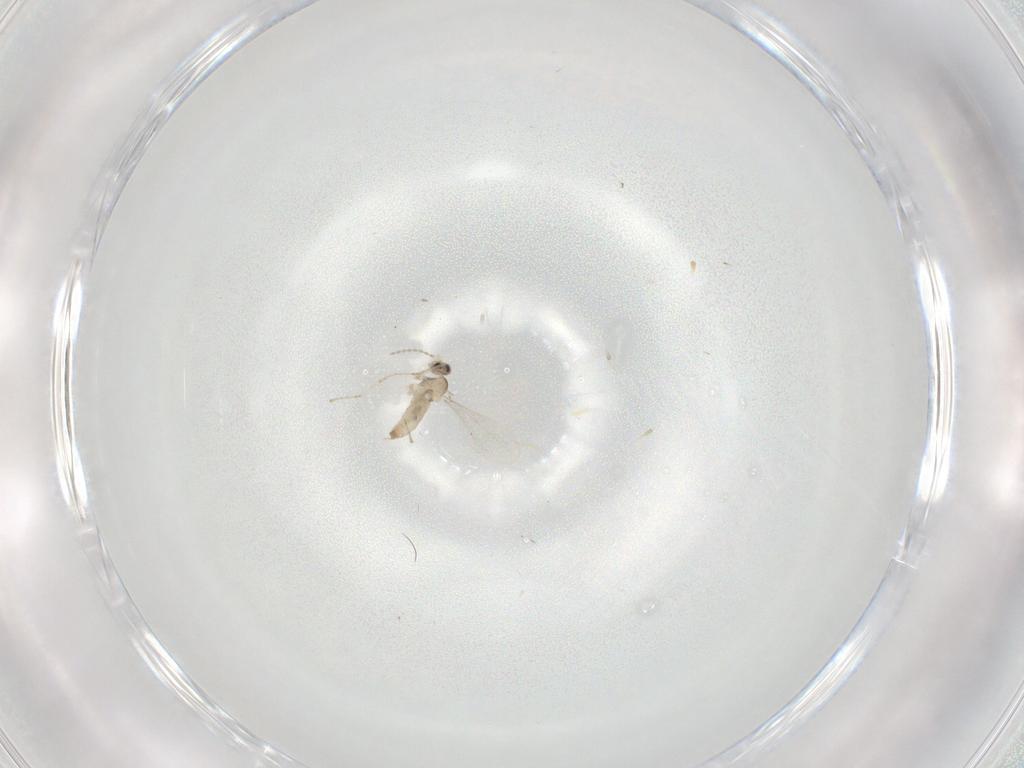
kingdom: Animalia
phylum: Arthropoda
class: Insecta
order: Diptera
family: Cecidomyiidae
